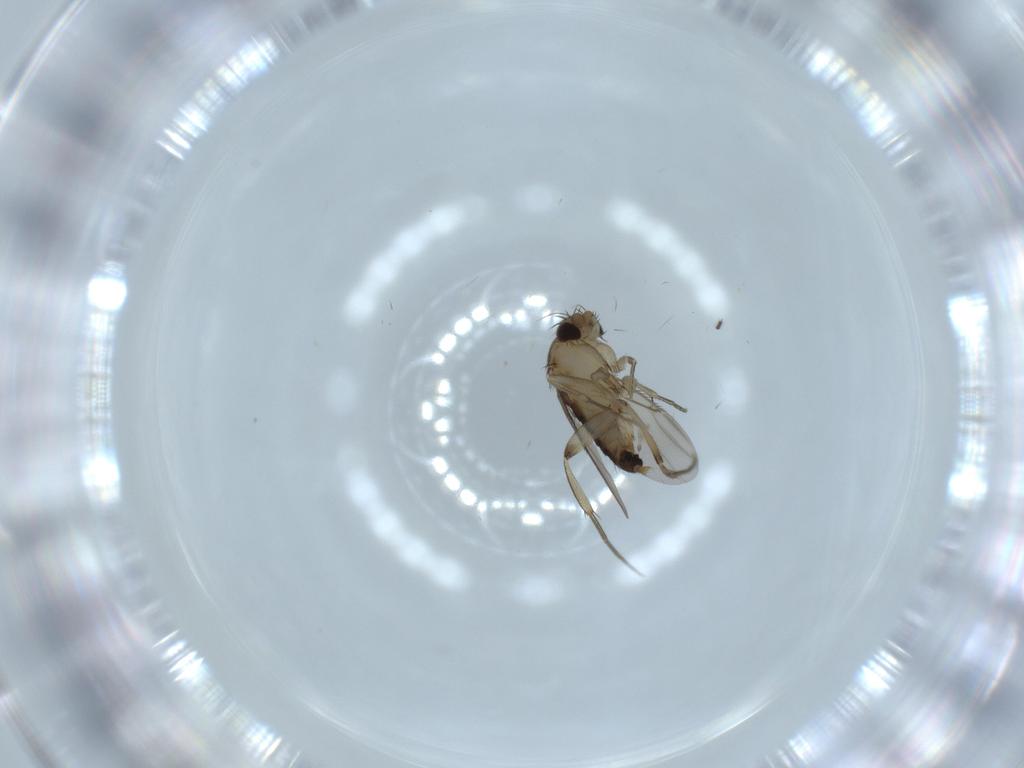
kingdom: Animalia
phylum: Arthropoda
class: Insecta
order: Diptera
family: Phoridae
